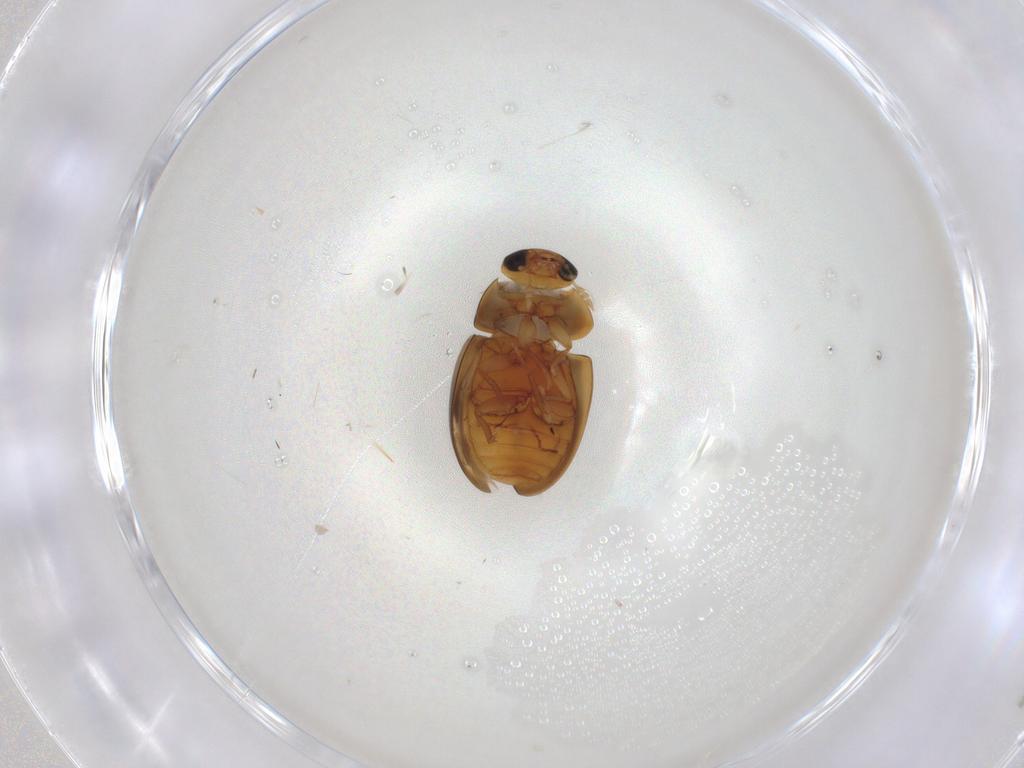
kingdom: Animalia
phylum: Arthropoda
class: Insecta
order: Coleoptera
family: Phalacridae
